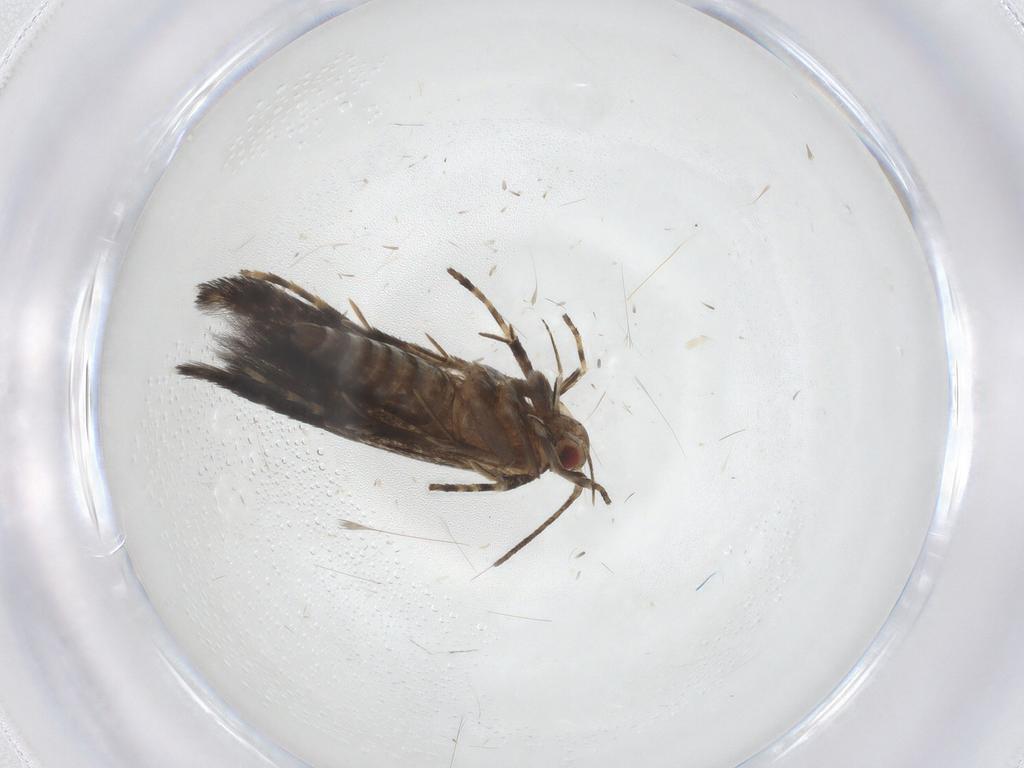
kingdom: Animalia
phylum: Arthropoda
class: Insecta
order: Lepidoptera
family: Cosmopterigidae
